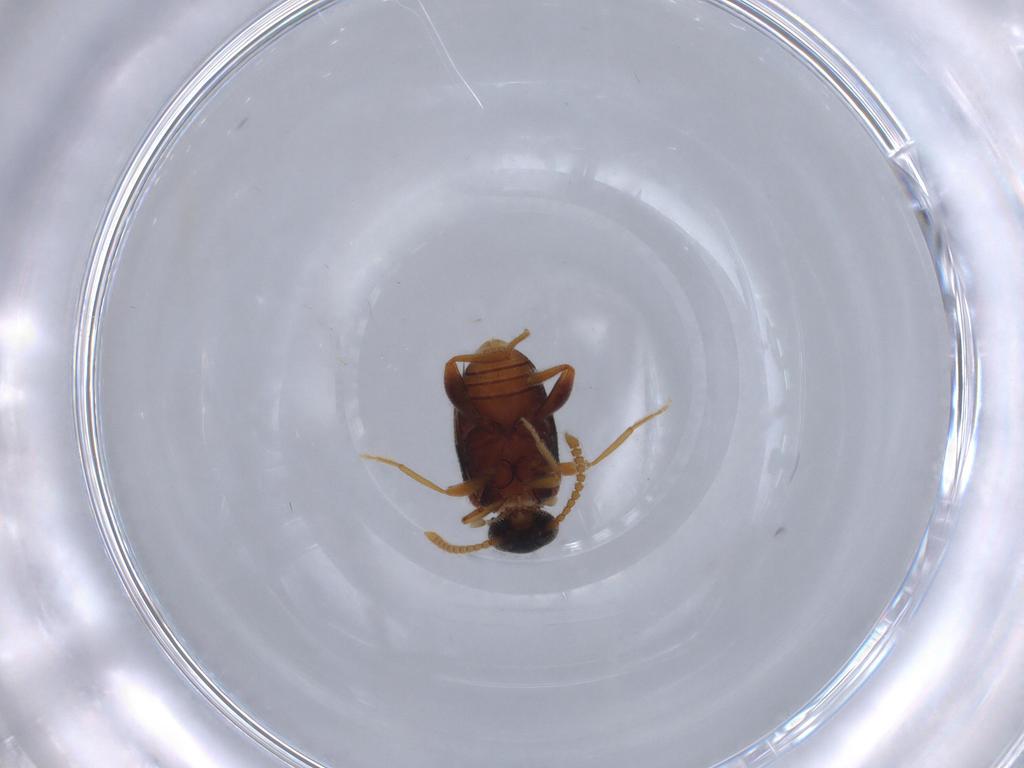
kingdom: Animalia
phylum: Arthropoda
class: Insecta
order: Coleoptera
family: Aderidae
